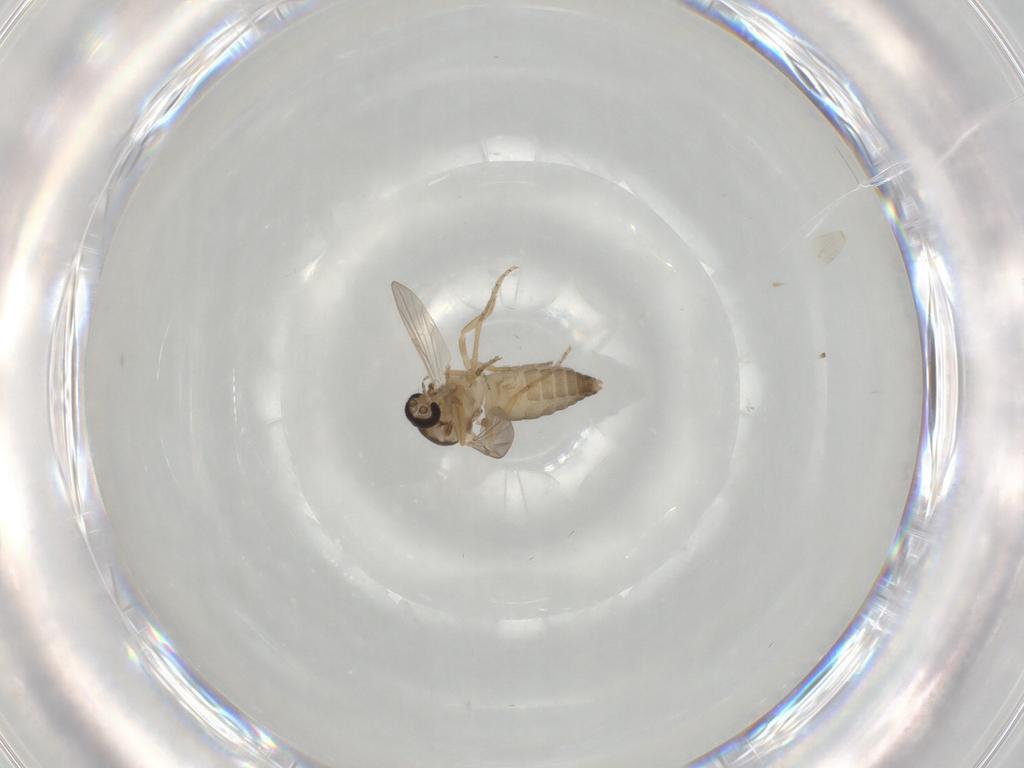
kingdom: Animalia
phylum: Arthropoda
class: Insecta
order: Diptera
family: Ceratopogonidae
